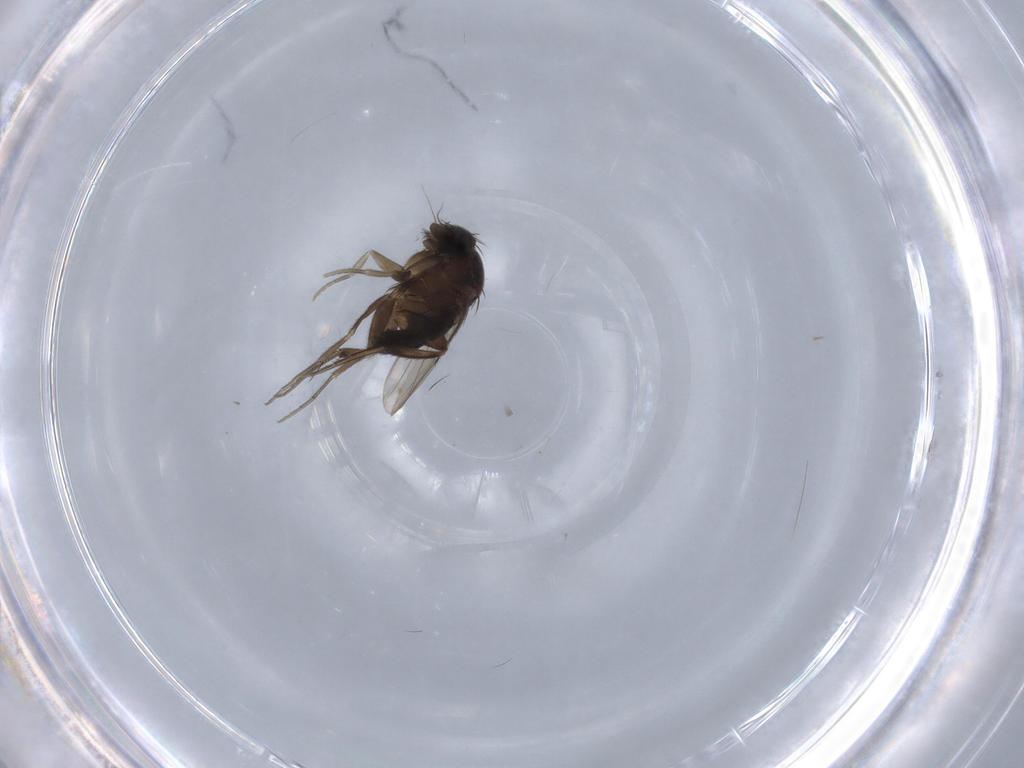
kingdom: Animalia
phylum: Arthropoda
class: Insecta
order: Diptera
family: Phoridae
